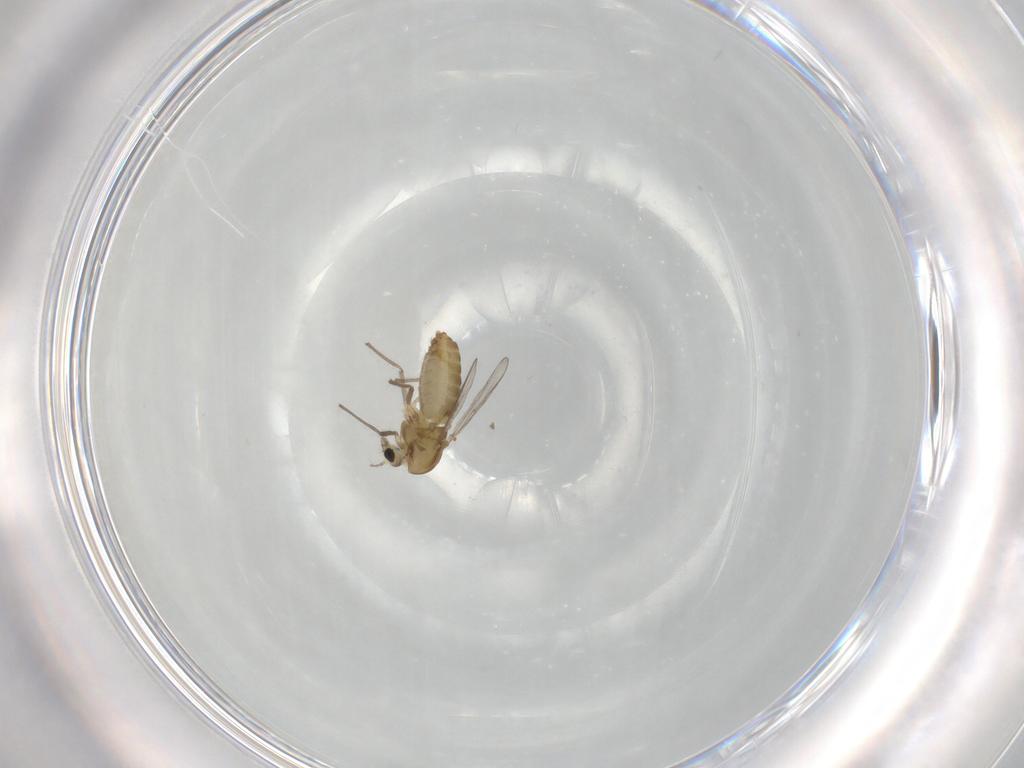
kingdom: Animalia
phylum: Arthropoda
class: Insecta
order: Diptera
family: Chironomidae
